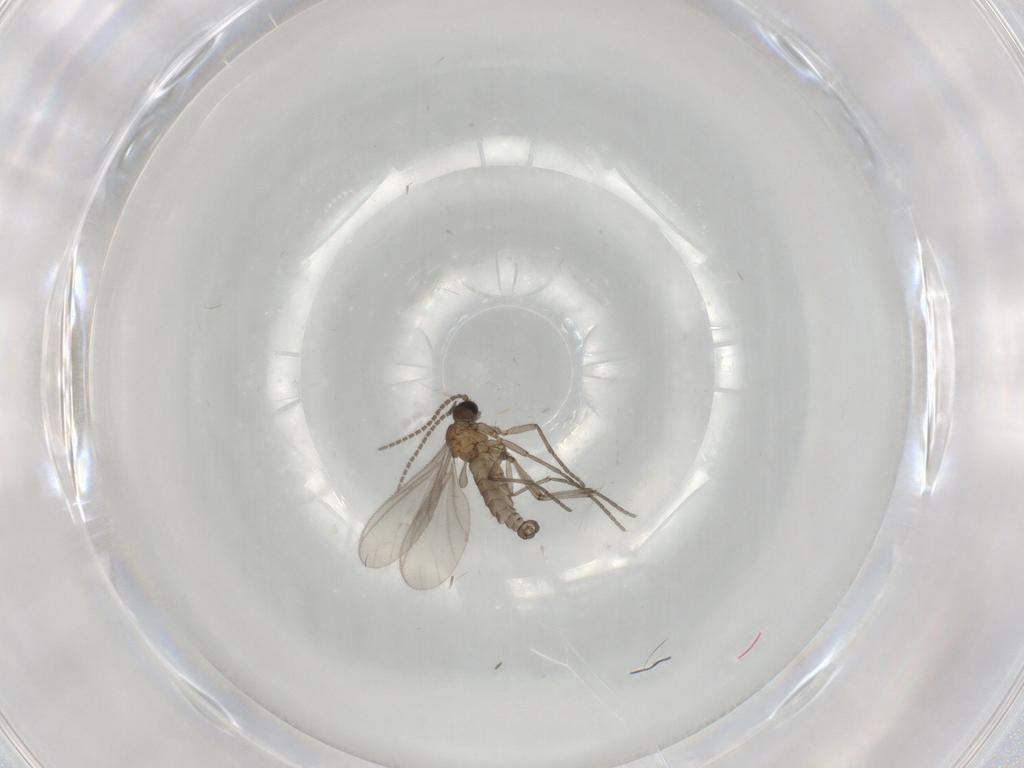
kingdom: Animalia
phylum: Arthropoda
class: Insecta
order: Diptera
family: Sciaridae
